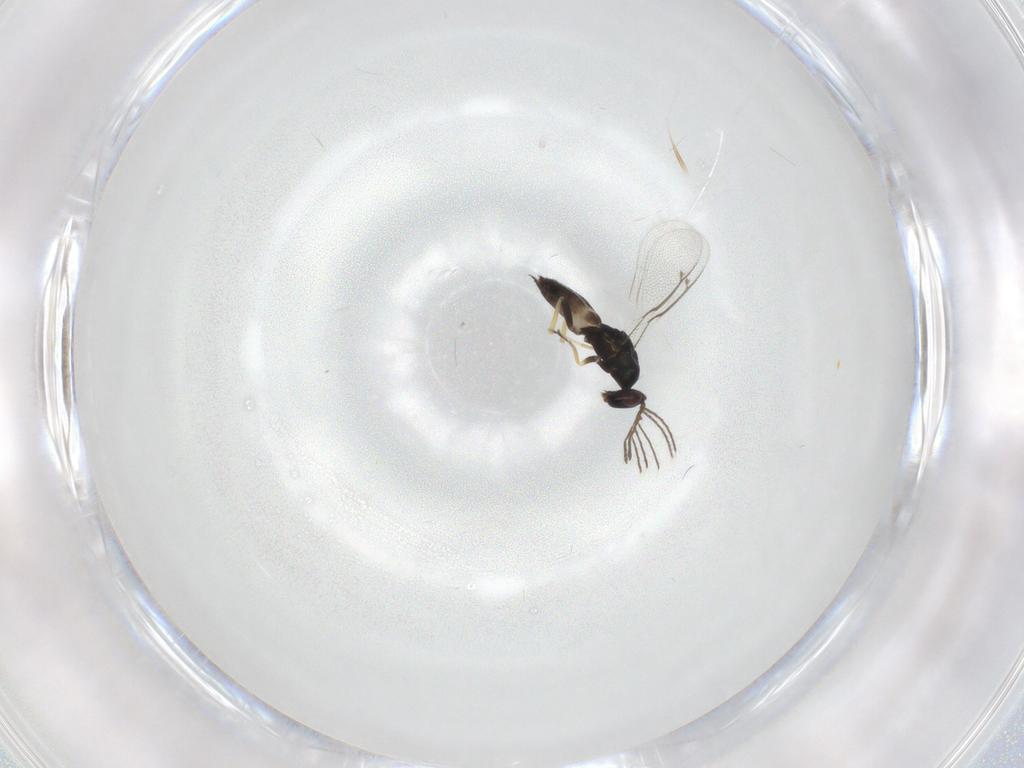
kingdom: Animalia
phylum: Arthropoda
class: Insecta
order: Hymenoptera
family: Eulophidae
